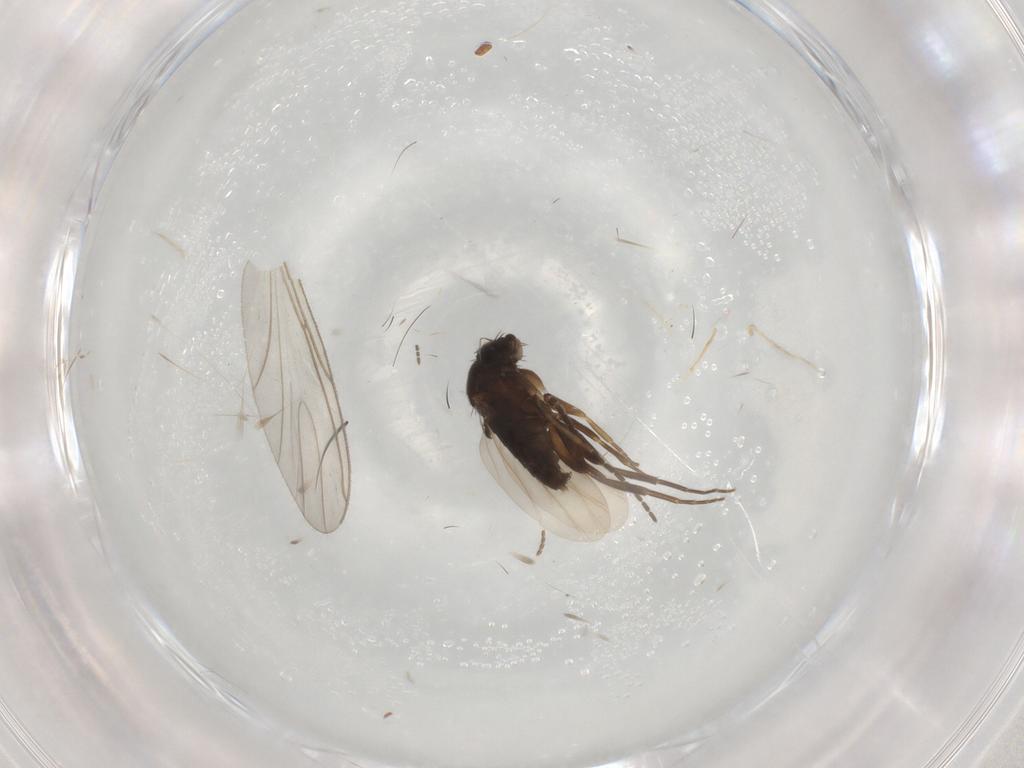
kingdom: Animalia
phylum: Arthropoda
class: Insecta
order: Diptera
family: Phoridae
